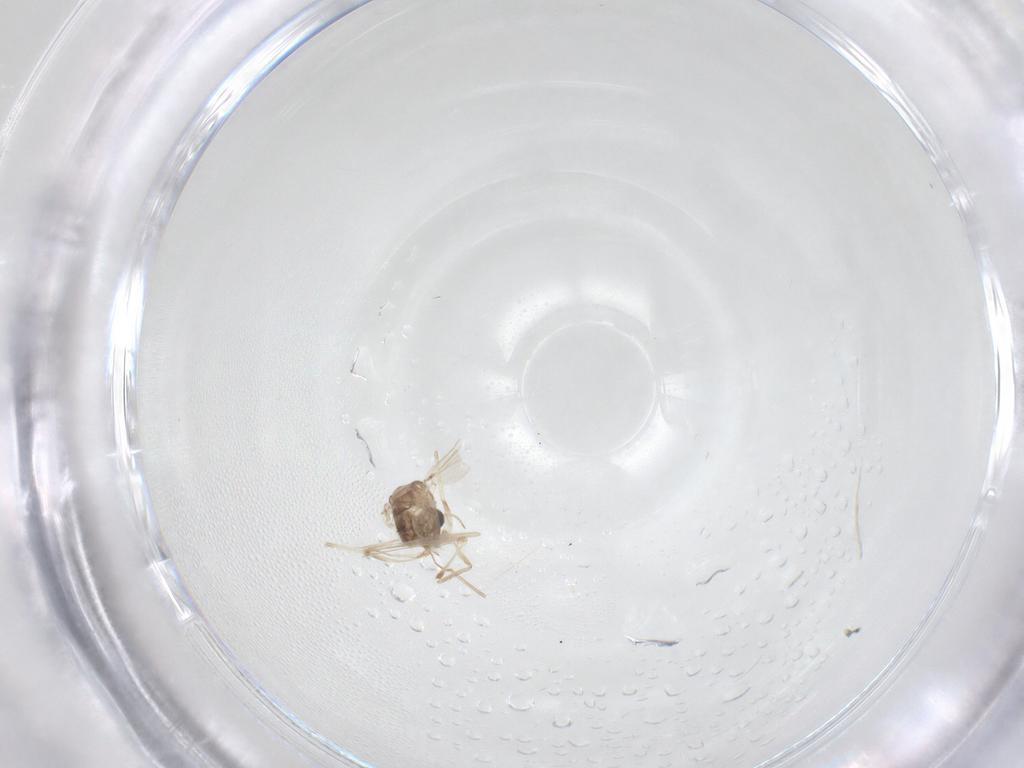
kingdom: Animalia
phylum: Arthropoda
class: Insecta
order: Diptera
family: Chironomidae
